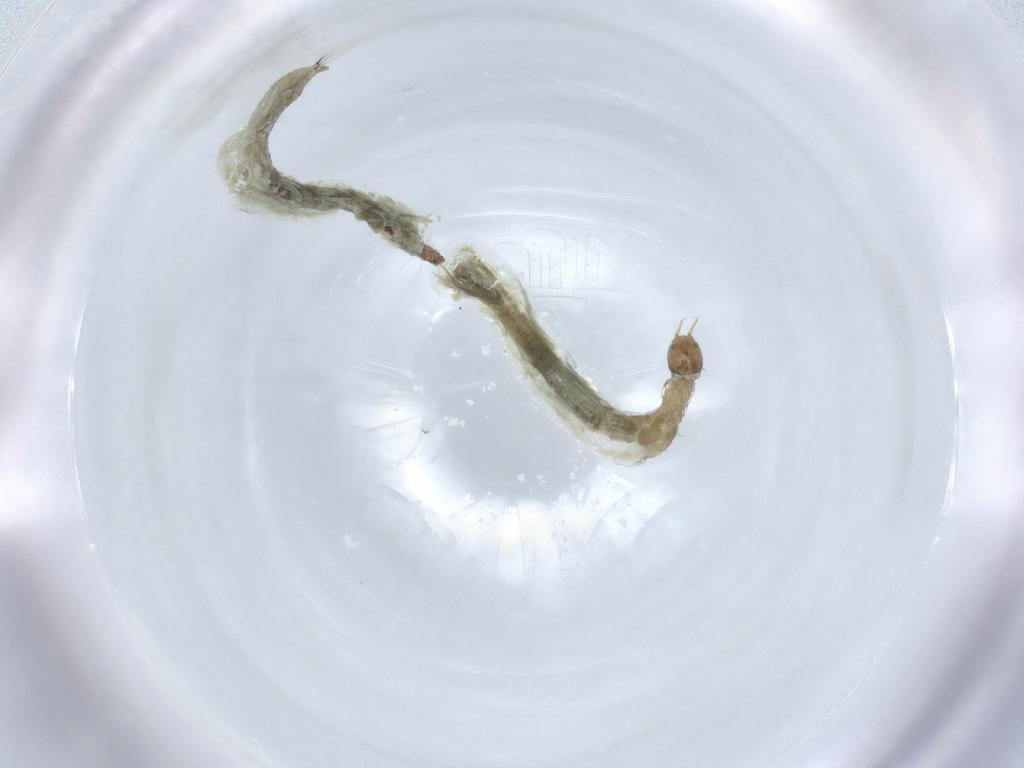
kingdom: Animalia
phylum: Arthropoda
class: Insecta
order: Diptera
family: Chironomidae
